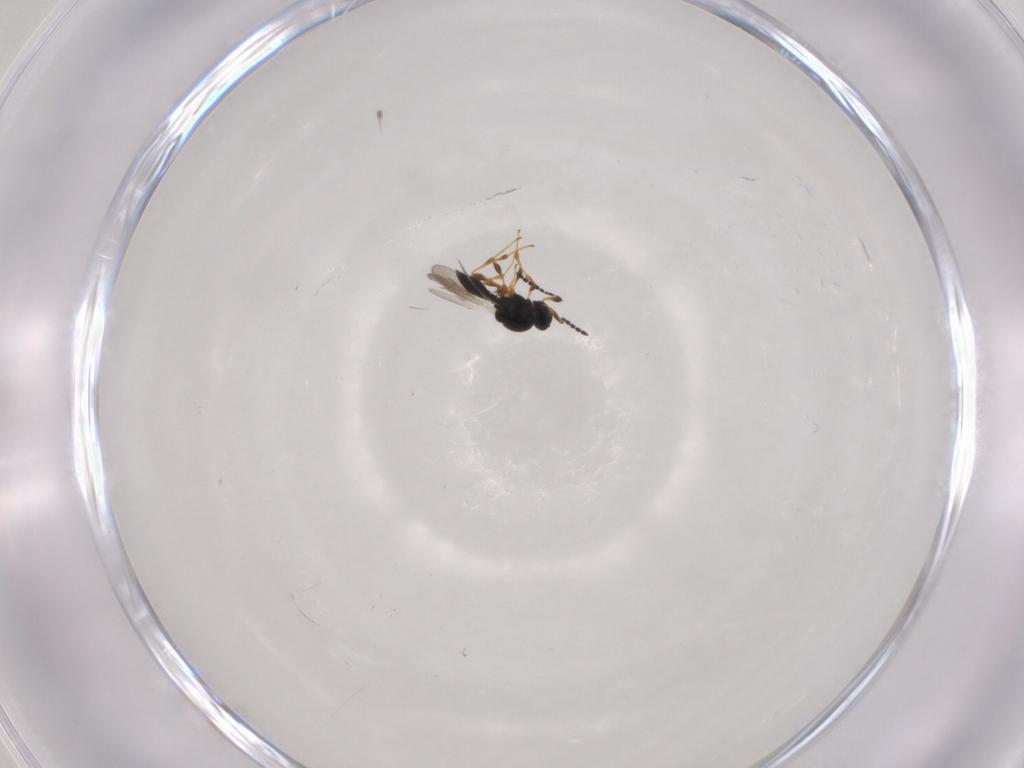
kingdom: Animalia
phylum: Arthropoda
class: Insecta
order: Hymenoptera
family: Platygastridae
